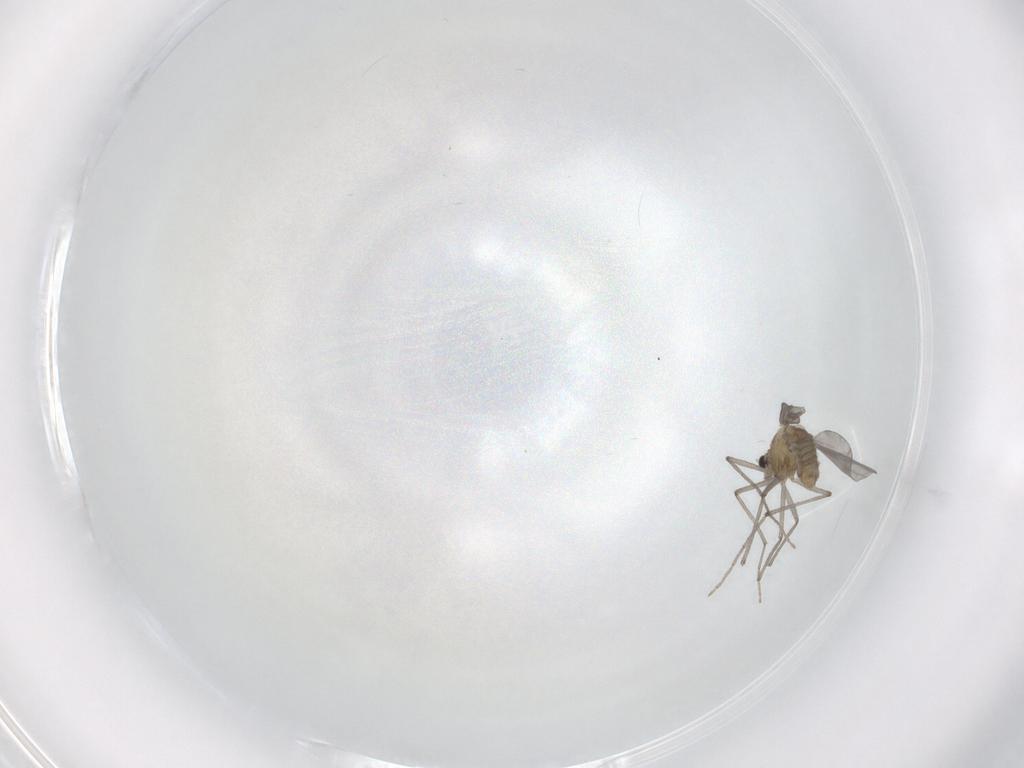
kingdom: Animalia
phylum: Arthropoda
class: Insecta
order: Diptera
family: Chironomidae
